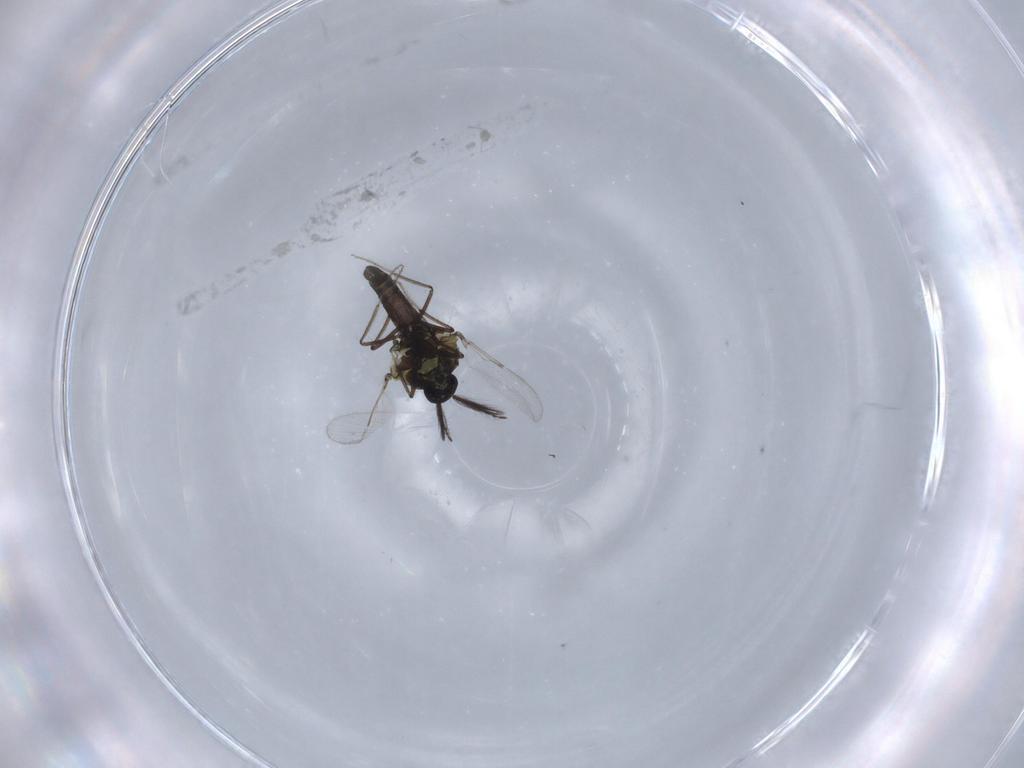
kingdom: Animalia
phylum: Arthropoda
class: Insecta
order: Diptera
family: Ceratopogonidae
